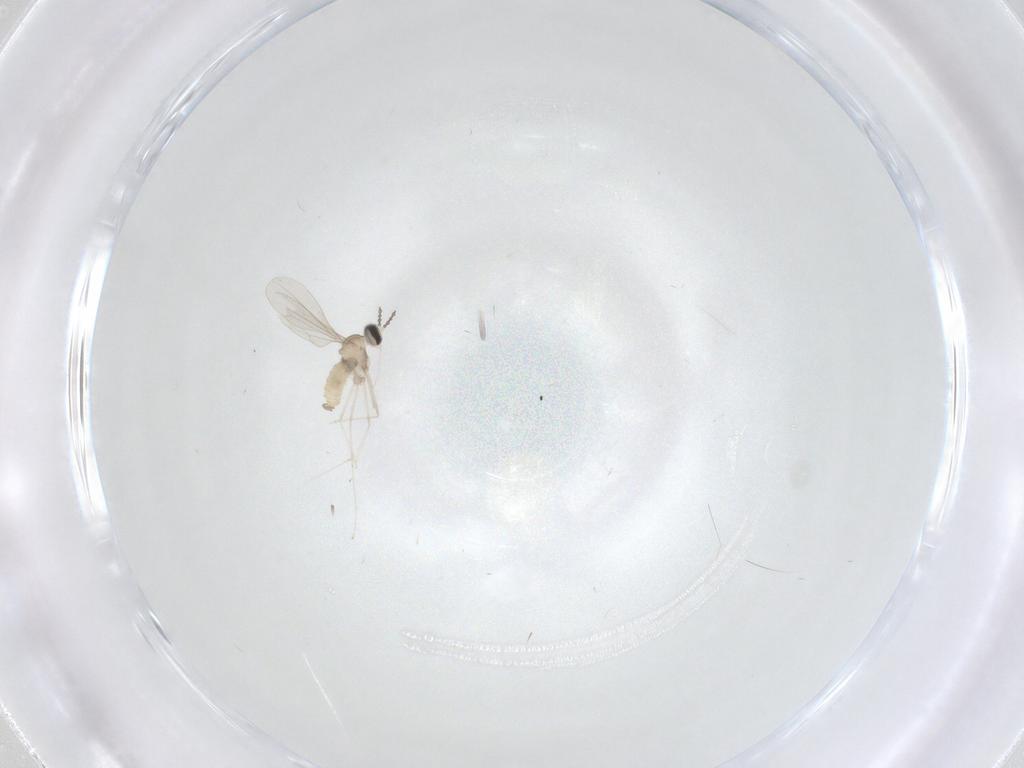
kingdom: Animalia
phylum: Arthropoda
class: Insecta
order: Diptera
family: Cecidomyiidae
